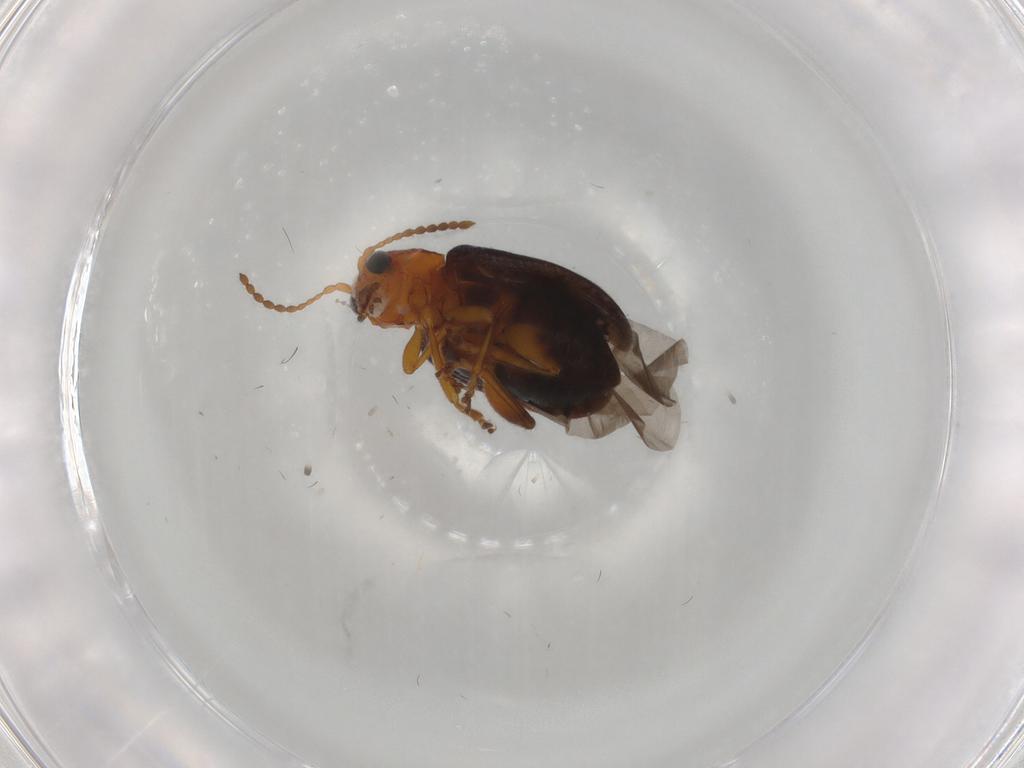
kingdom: Animalia
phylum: Arthropoda
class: Insecta
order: Coleoptera
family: Chrysomelidae
